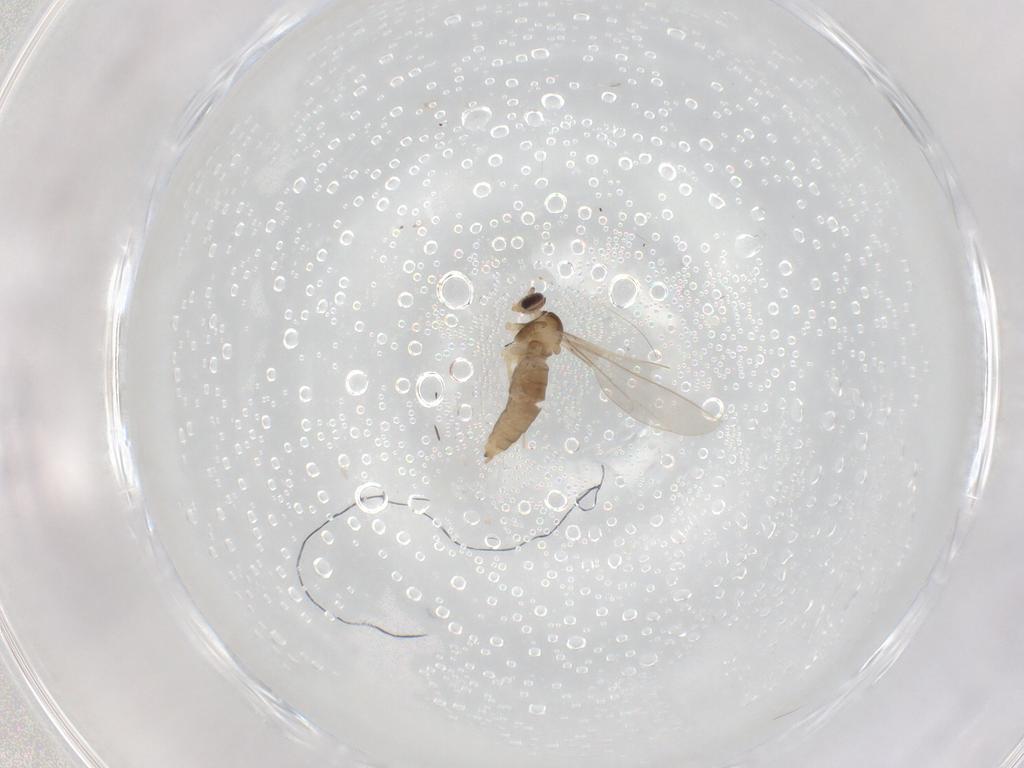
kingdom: Animalia
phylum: Arthropoda
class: Insecta
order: Diptera
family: Cecidomyiidae
